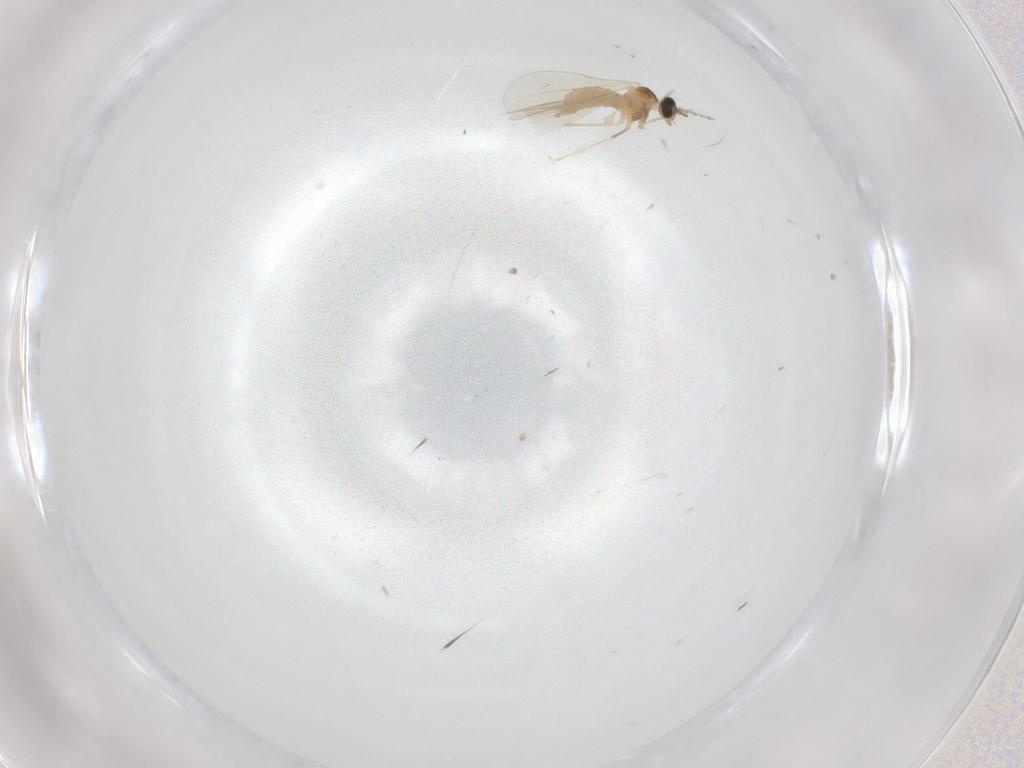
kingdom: Animalia
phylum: Arthropoda
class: Insecta
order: Diptera
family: Cecidomyiidae
